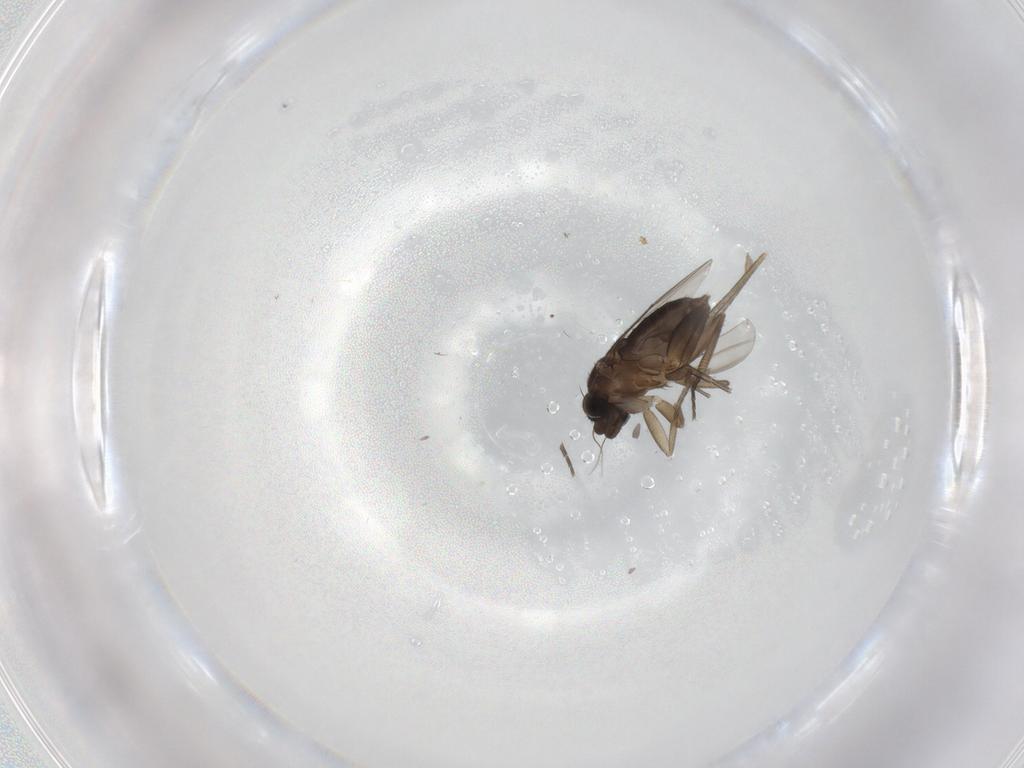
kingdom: Animalia
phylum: Arthropoda
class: Insecta
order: Diptera
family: Phoridae
